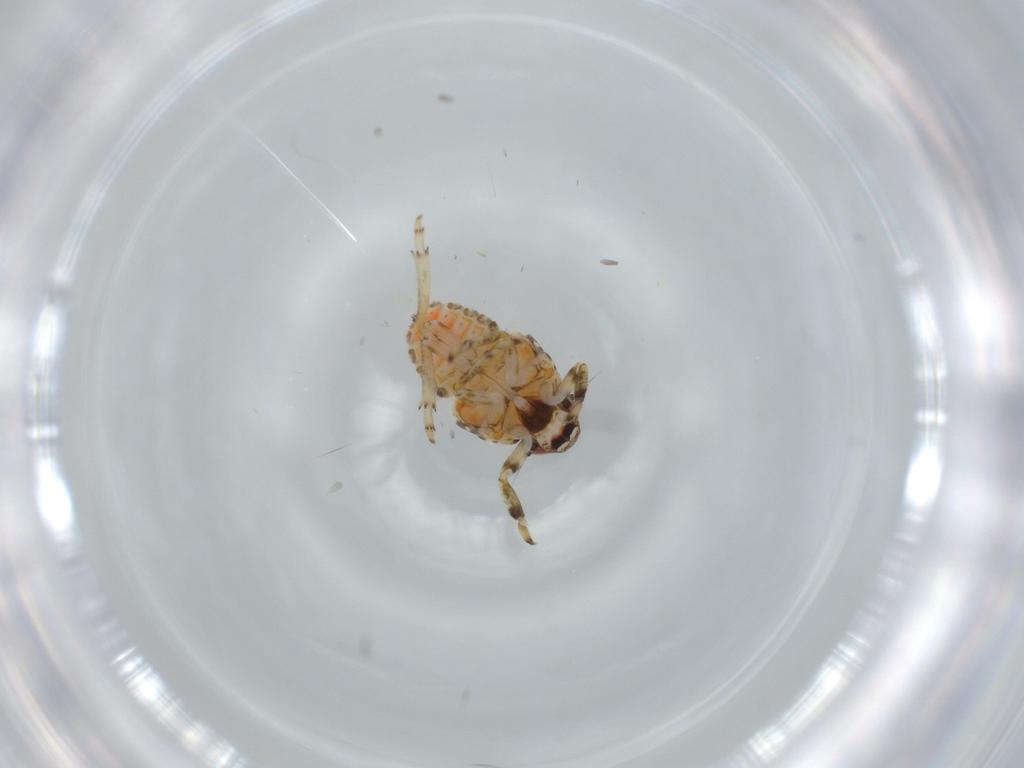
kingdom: Animalia
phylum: Arthropoda
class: Insecta
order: Hemiptera
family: Issidae
